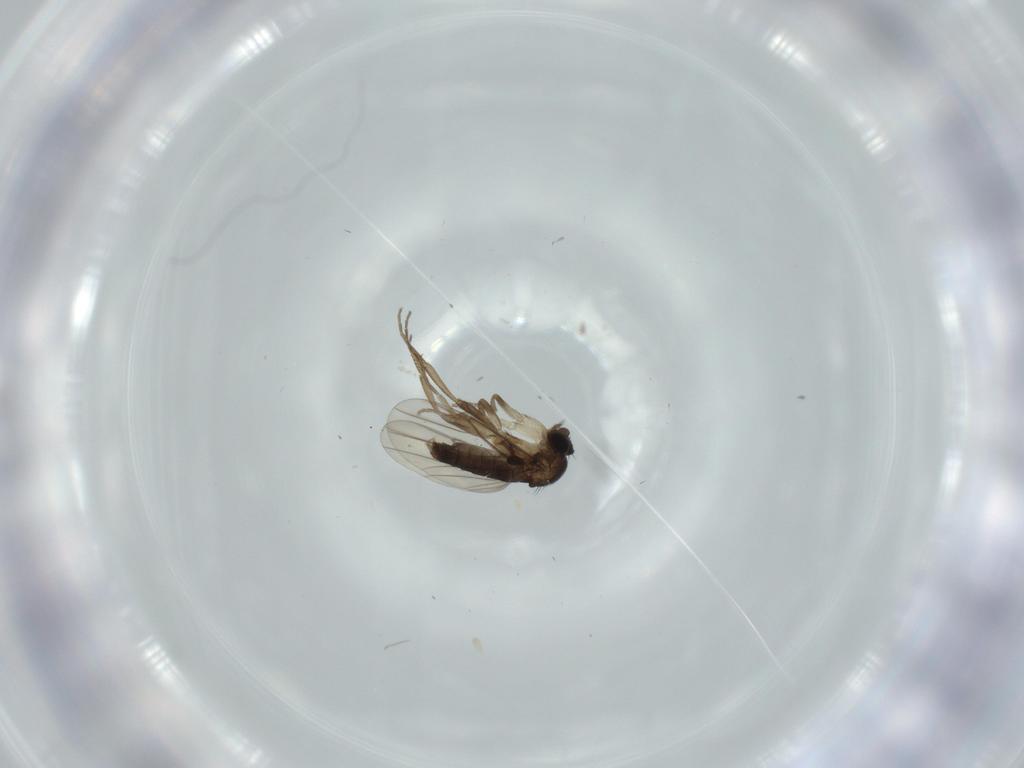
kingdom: Animalia
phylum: Arthropoda
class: Insecta
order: Diptera
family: Phoridae
